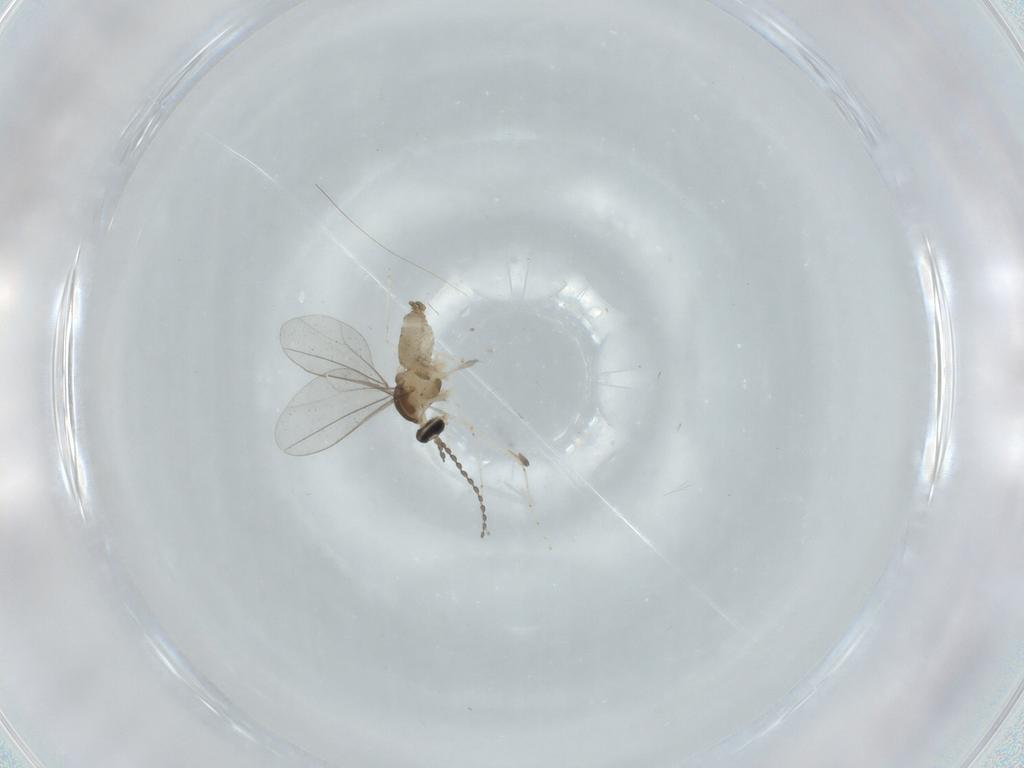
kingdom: Animalia
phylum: Arthropoda
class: Insecta
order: Diptera
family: Cecidomyiidae
